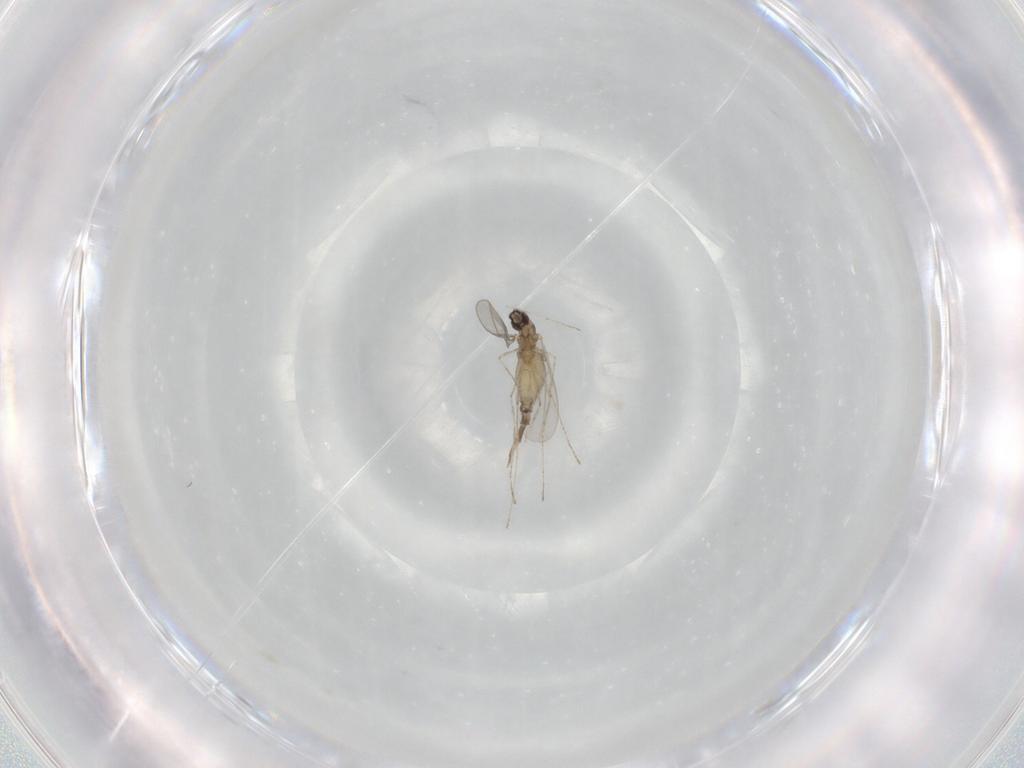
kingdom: Animalia
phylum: Arthropoda
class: Insecta
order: Diptera
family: Cecidomyiidae
